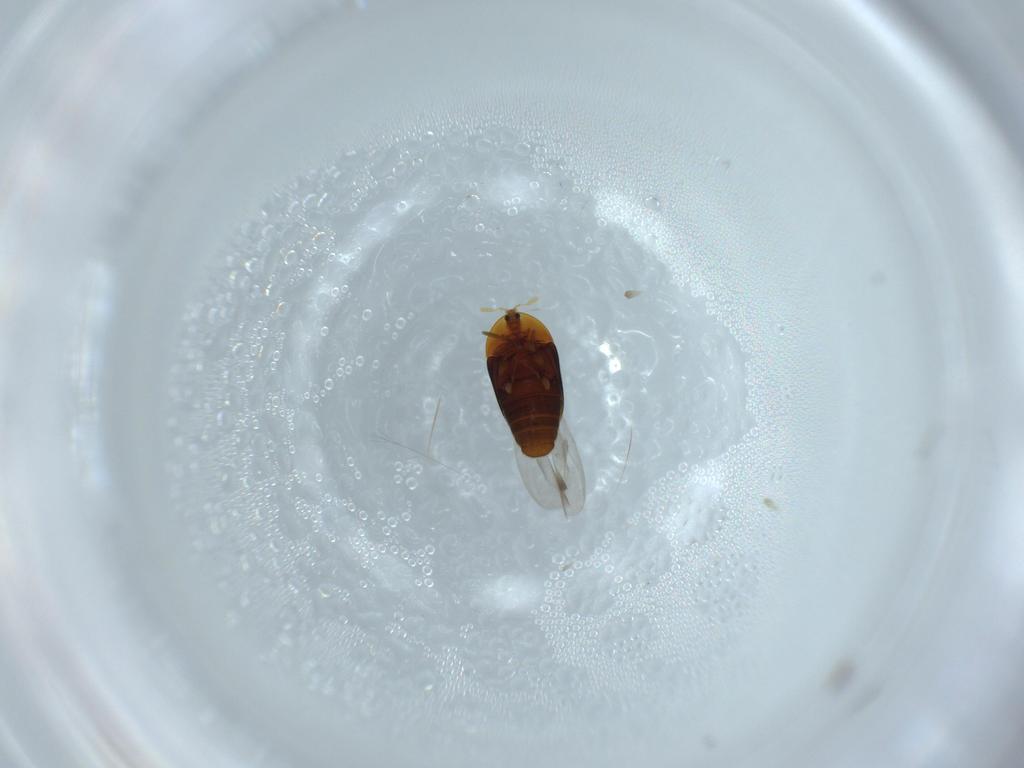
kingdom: Animalia
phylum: Arthropoda
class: Insecta
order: Coleoptera
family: Corylophidae
